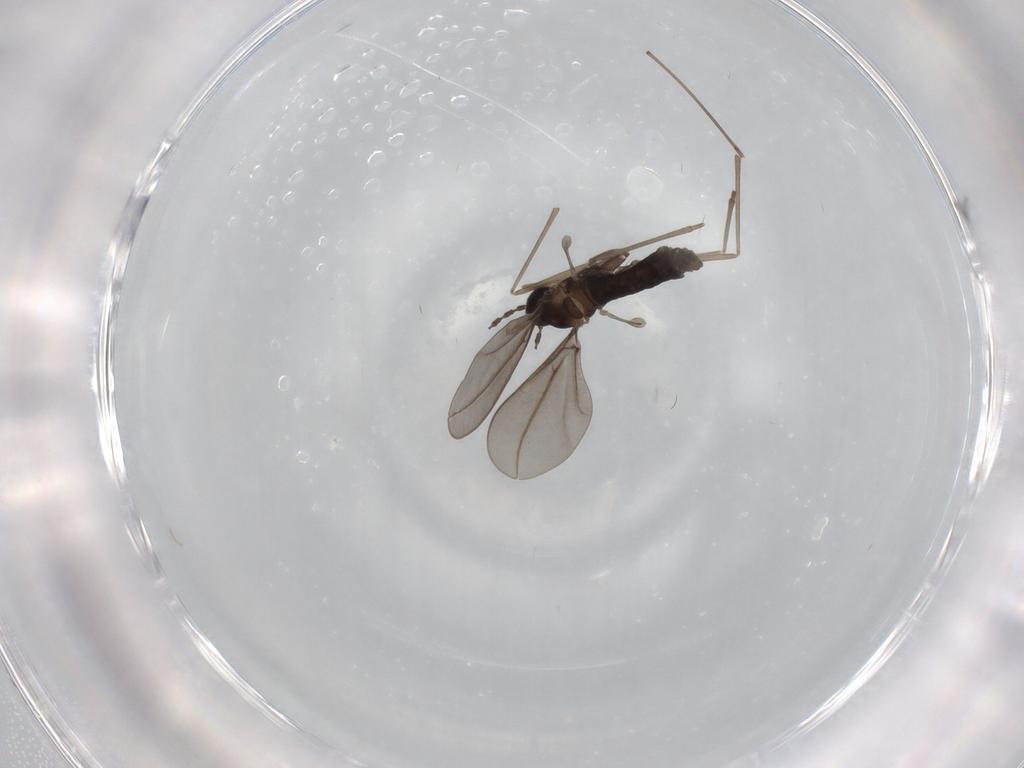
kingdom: Animalia
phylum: Arthropoda
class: Insecta
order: Diptera
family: Cecidomyiidae
